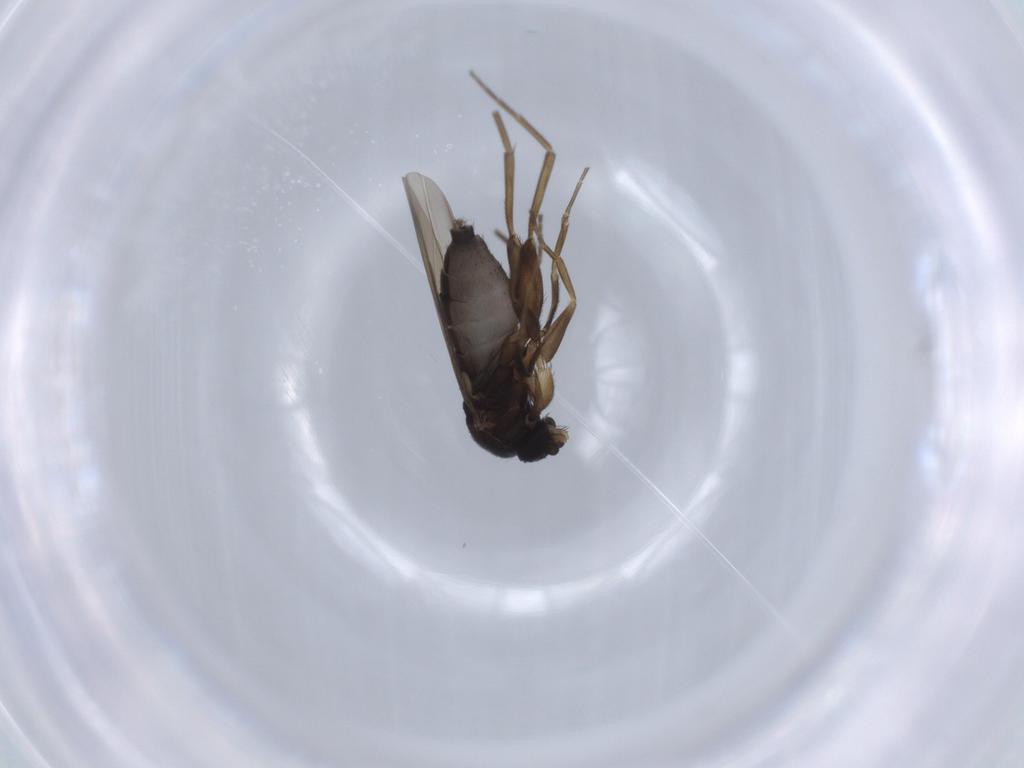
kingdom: Animalia
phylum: Arthropoda
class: Insecta
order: Diptera
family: Phoridae
